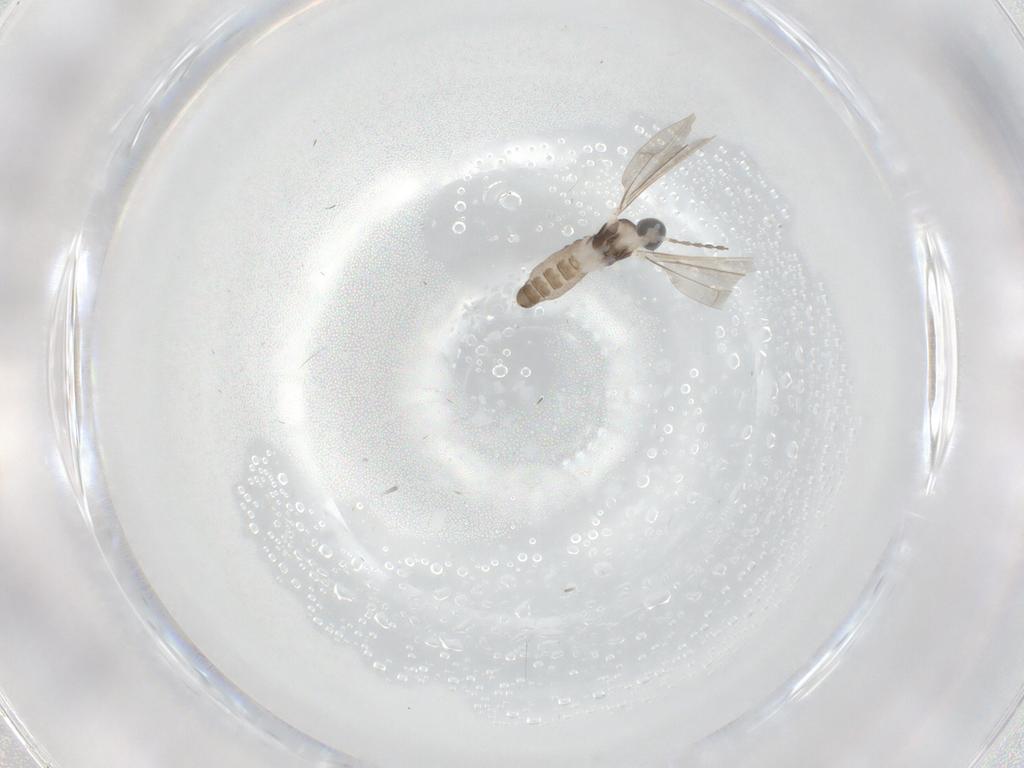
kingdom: Animalia
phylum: Arthropoda
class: Insecta
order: Diptera
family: Cecidomyiidae
